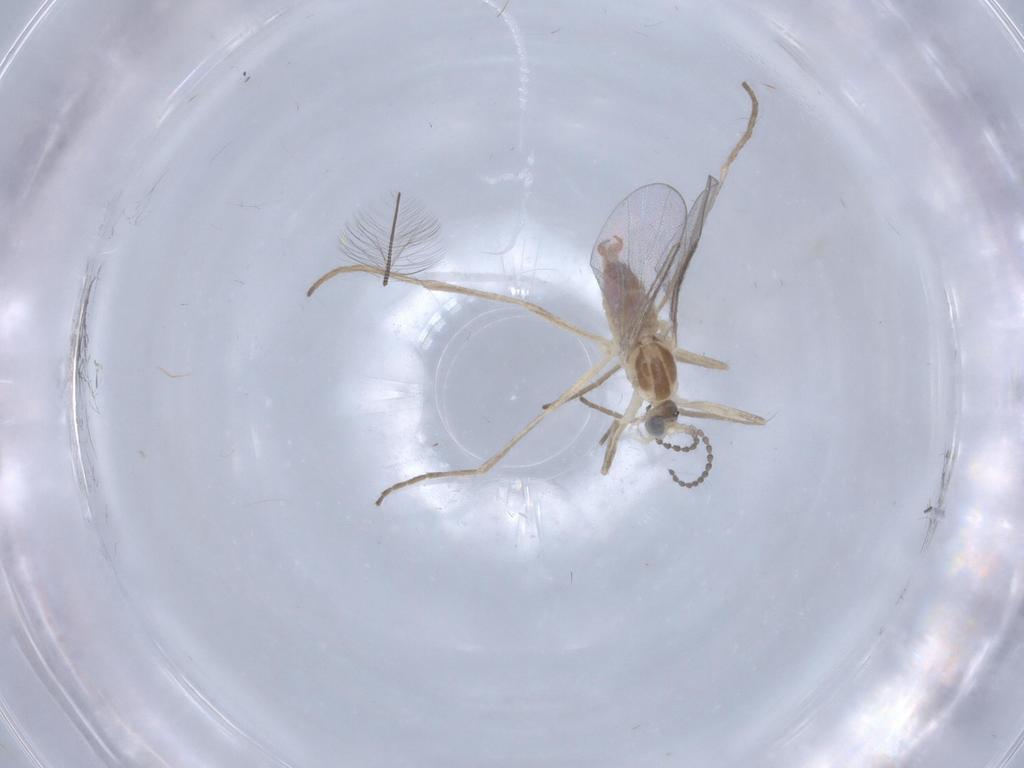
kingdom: Animalia
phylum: Arthropoda
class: Insecta
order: Diptera
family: Cecidomyiidae
